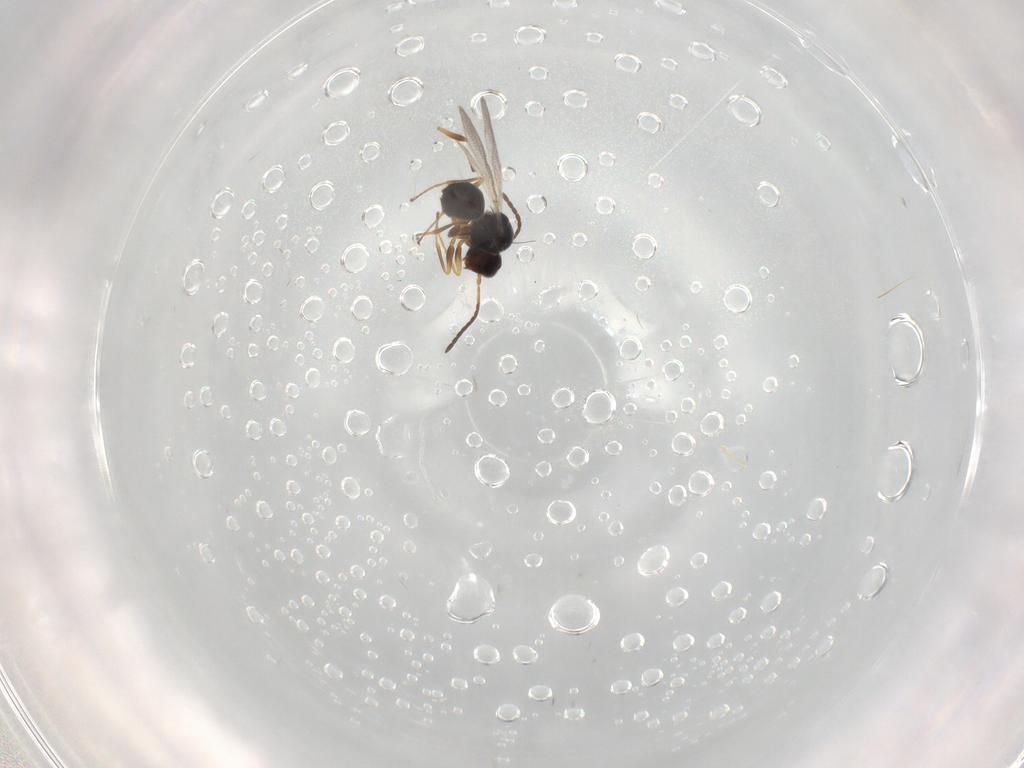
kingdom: Animalia
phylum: Arthropoda
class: Insecta
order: Hymenoptera
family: Figitidae
